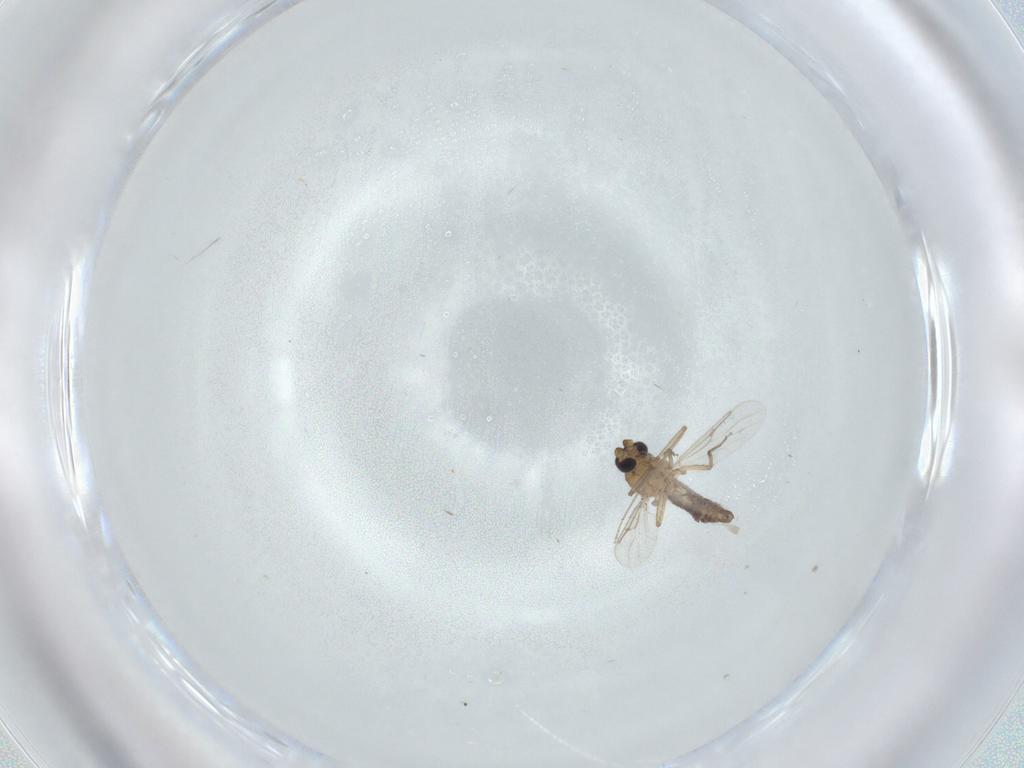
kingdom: Animalia
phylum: Arthropoda
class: Insecta
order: Diptera
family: Ceratopogonidae
